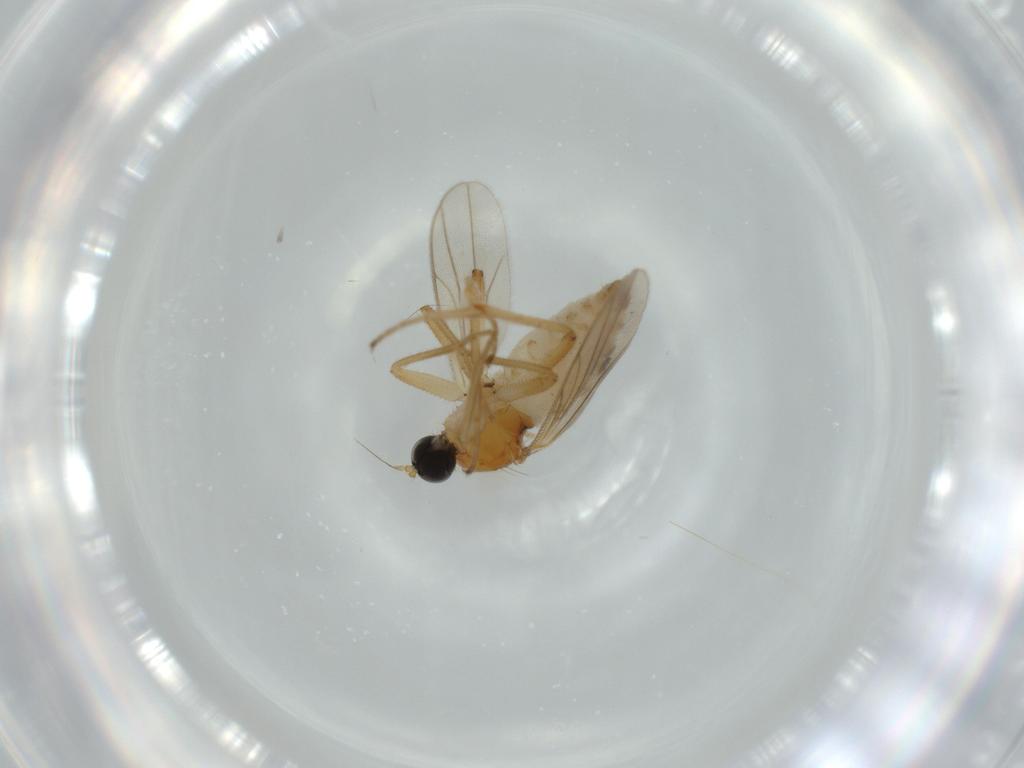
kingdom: Animalia
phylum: Arthropoda
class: Insecta
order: Diptera
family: Hybotidae
